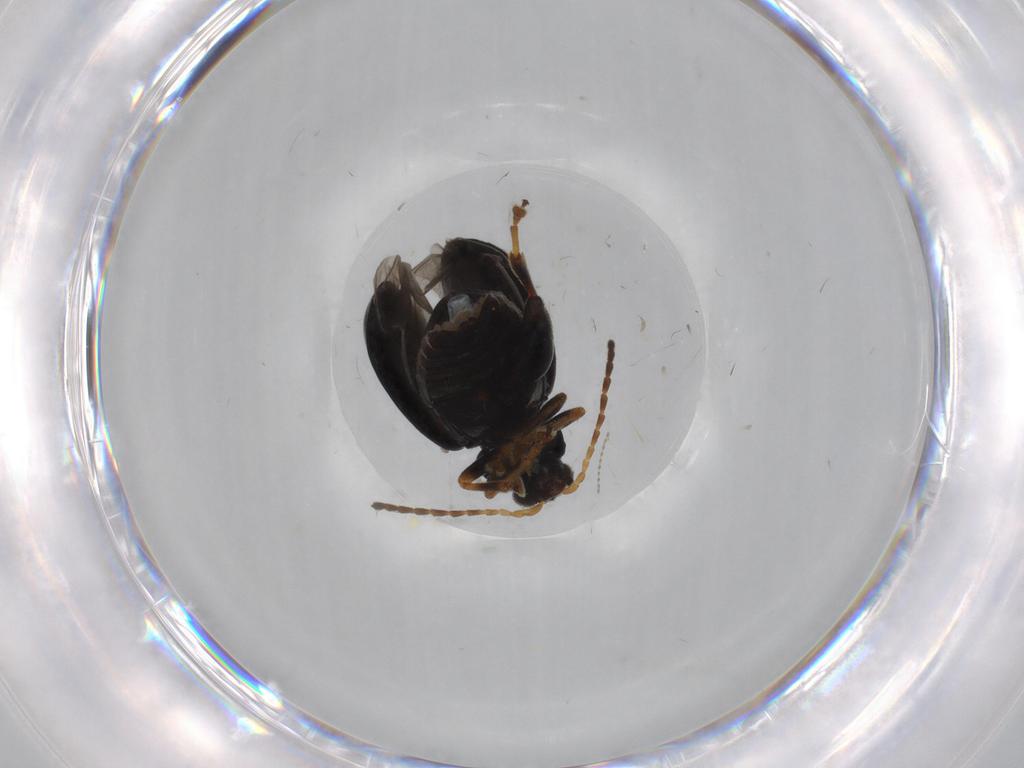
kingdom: Animalia
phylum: Arthropoda
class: Insecta
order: Coleoptera
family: Chrysomelidae
